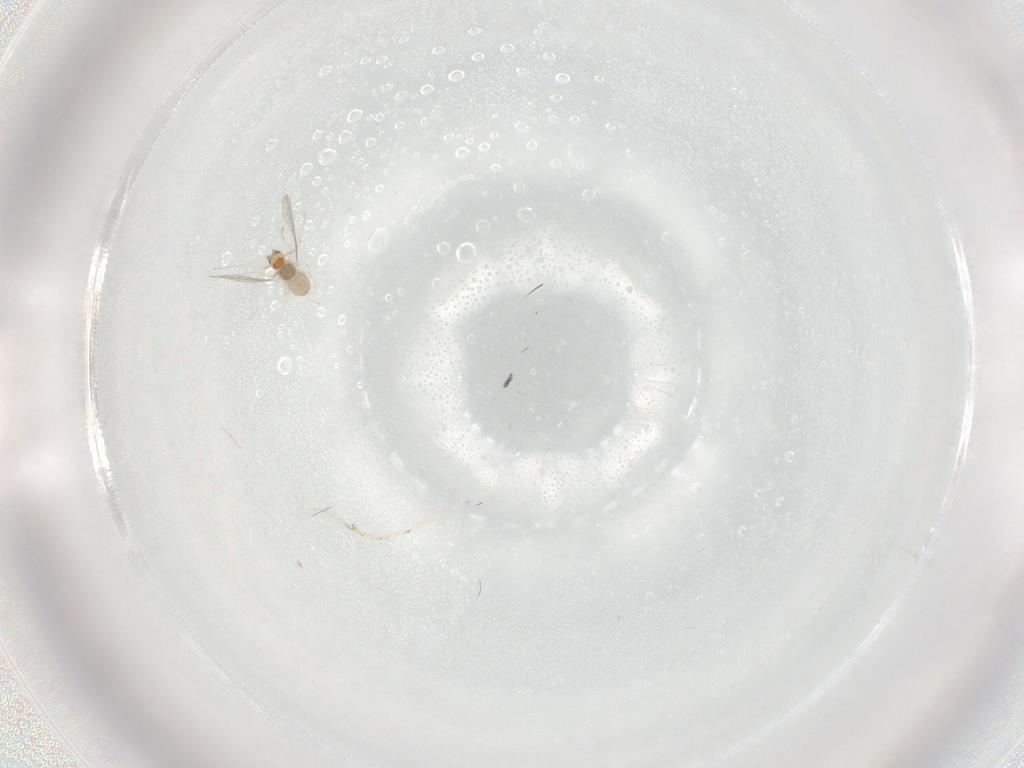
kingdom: Animalia
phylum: Arthropoda
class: Insecta
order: Diptera
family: Cecidomyiidae
